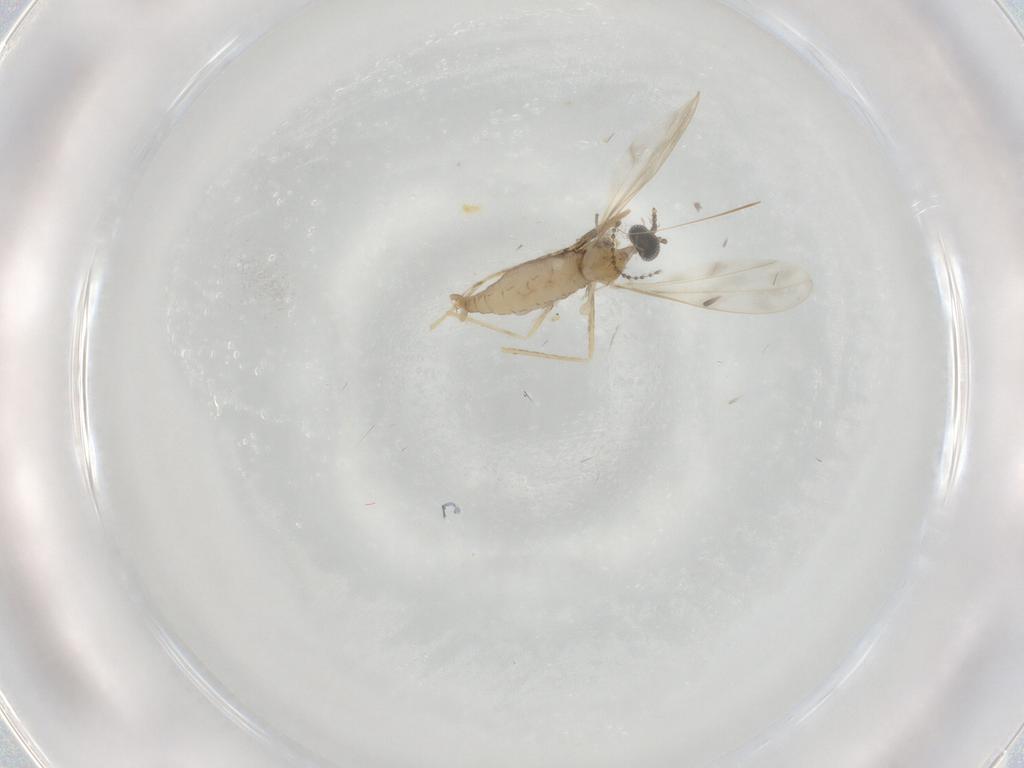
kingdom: Animalia
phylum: Arthropoda
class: Insecta
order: Diptera
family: Cecidomyiidae
